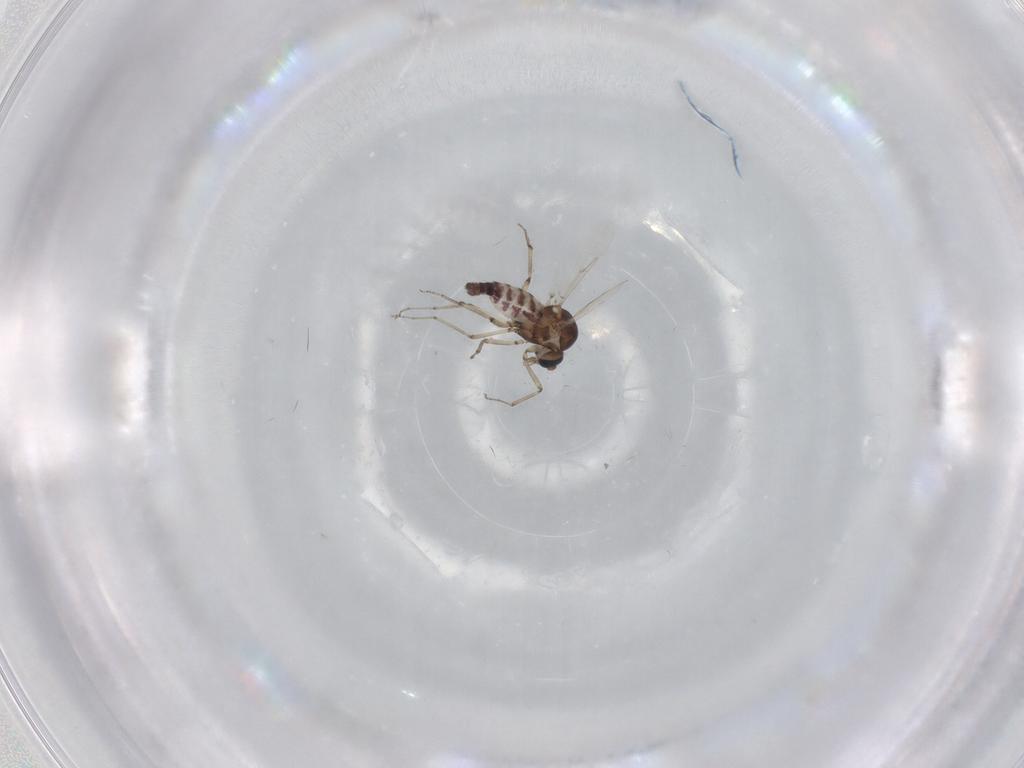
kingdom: Animalia
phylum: Arthropoda
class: Insecta
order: Diptera
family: Ceratopogonidae
